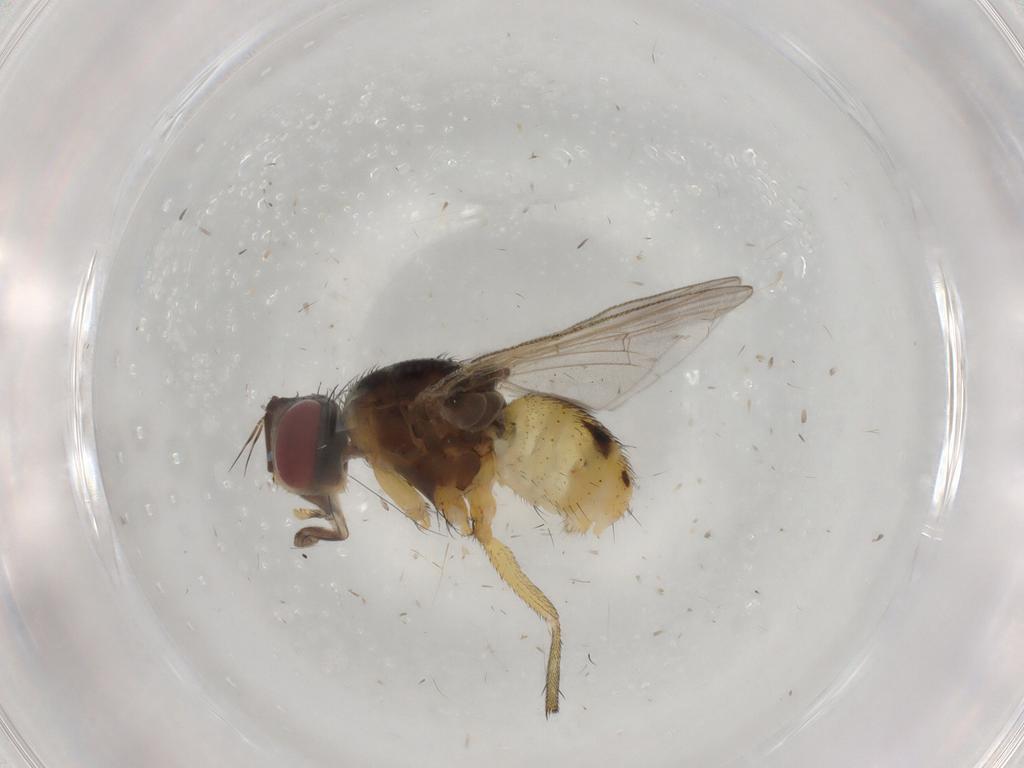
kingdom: Animalia
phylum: Arthropoda
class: Insecta
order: Diptera
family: Muscidae
